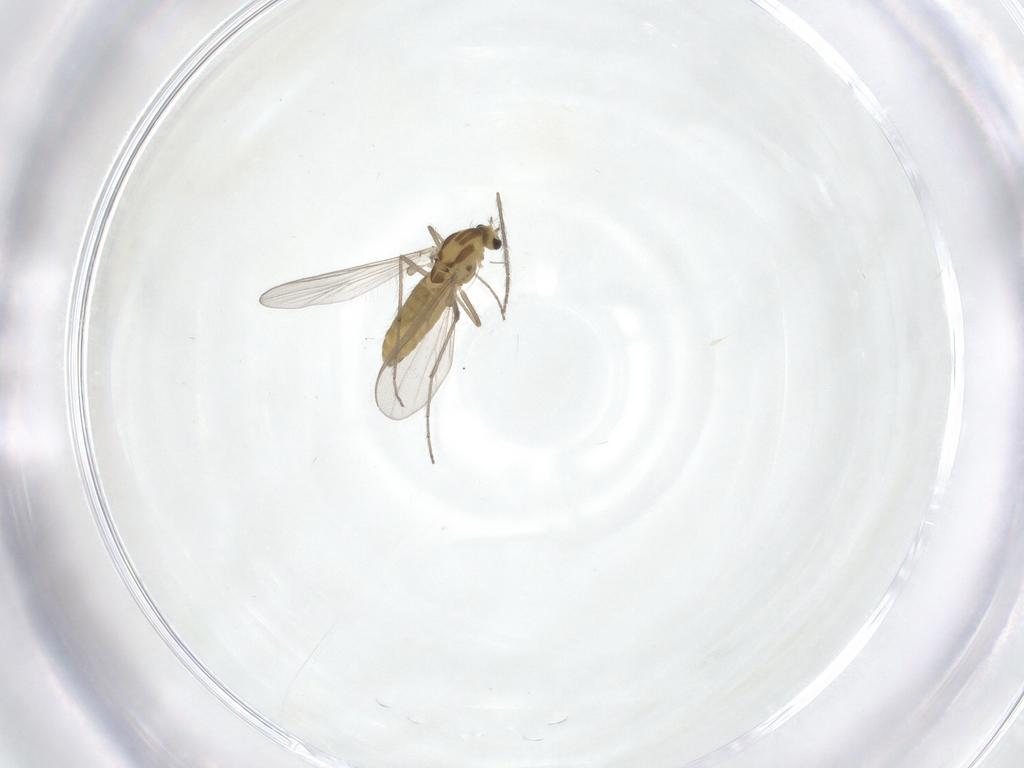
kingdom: Animalia
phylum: Arthropoda
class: Insecta
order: Diptera
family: Chironomidae
